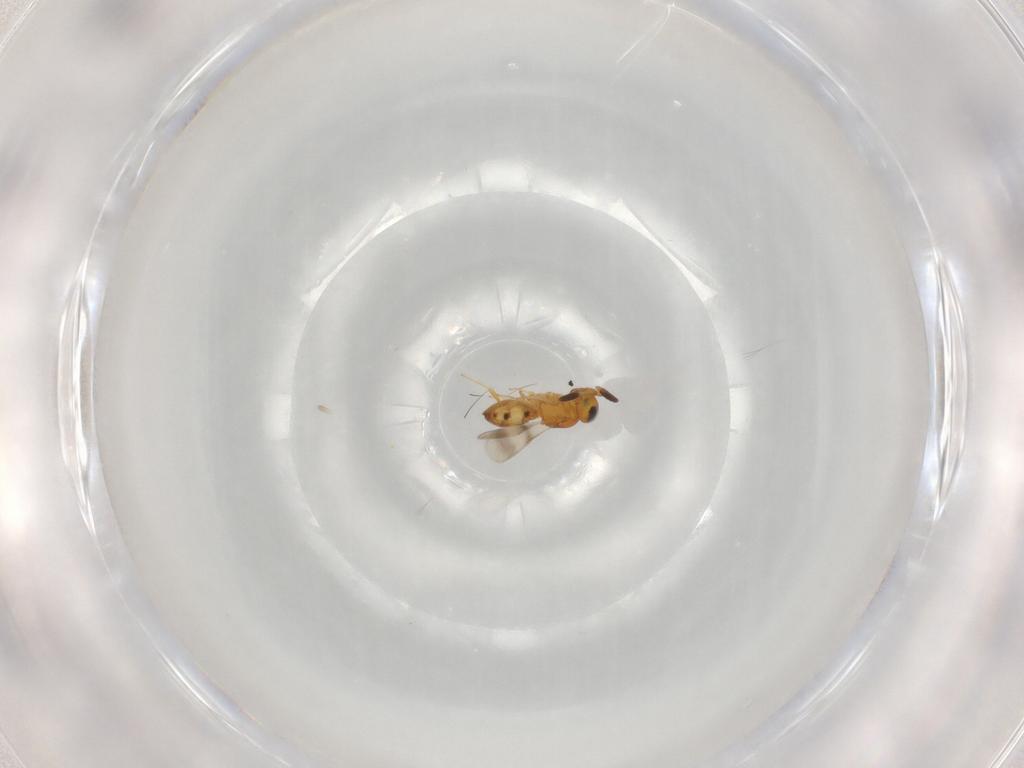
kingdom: Animalia
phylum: Arthropoda
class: Insecta
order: Hymenoptera
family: Scelionidae
